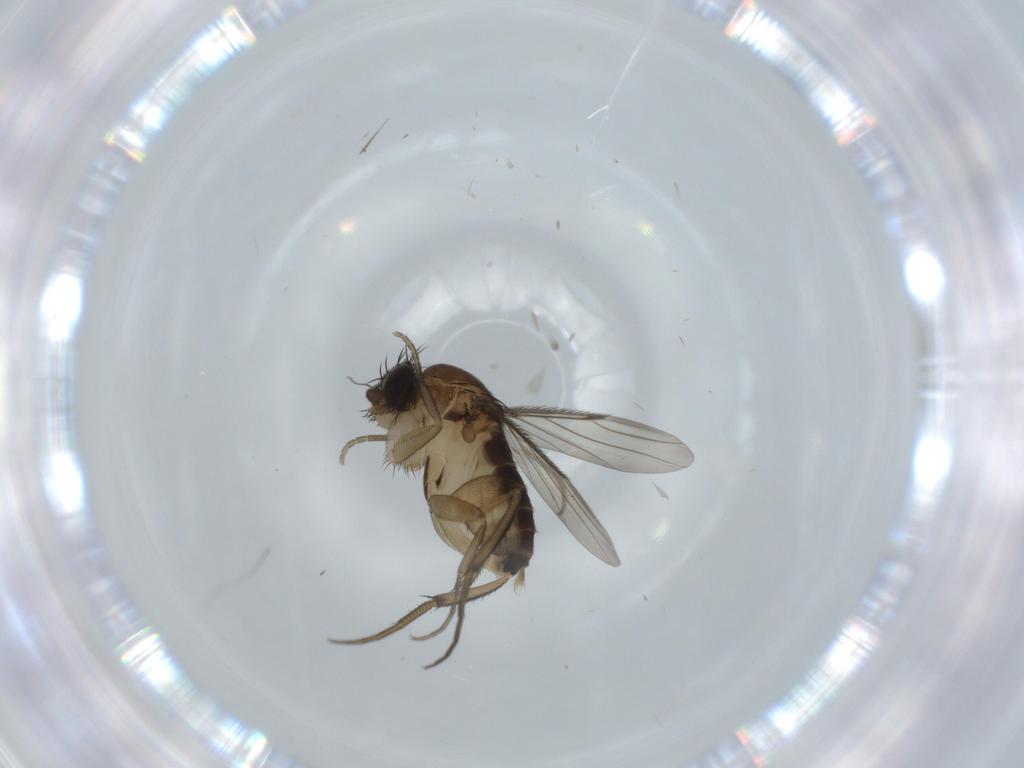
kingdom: Animalia
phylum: Arthropoda
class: Insecta
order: Diptera
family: Phoridae
